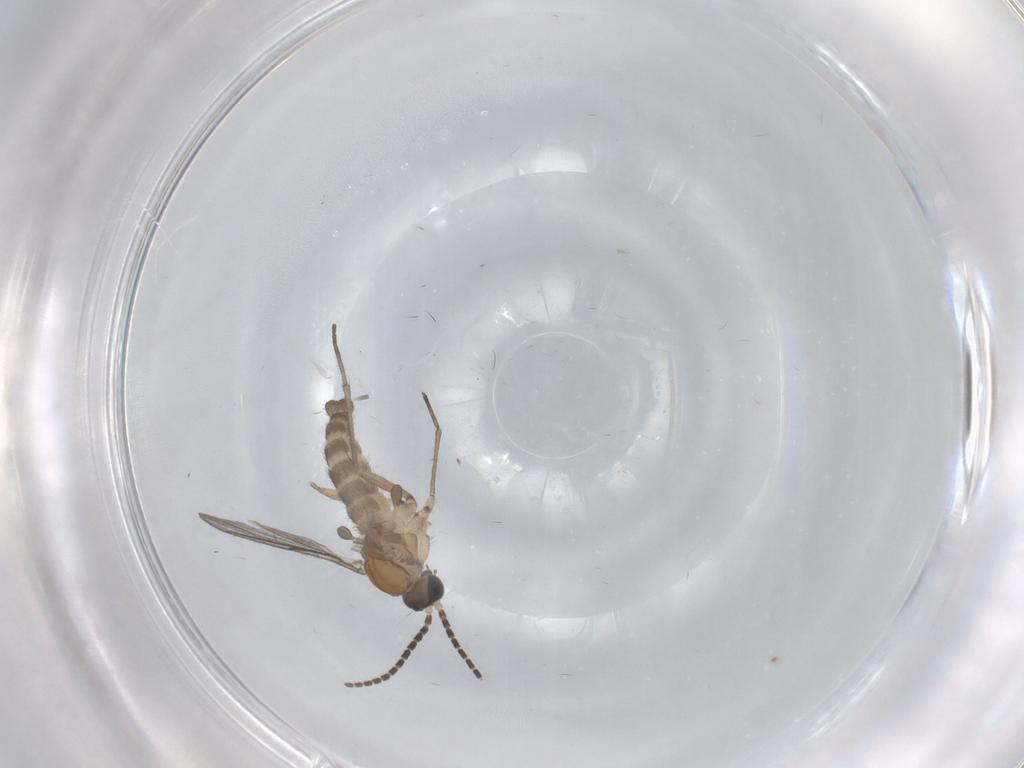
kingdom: Animalia
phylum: Arthropoda
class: Insecta
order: Diptera
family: Sciaridae
